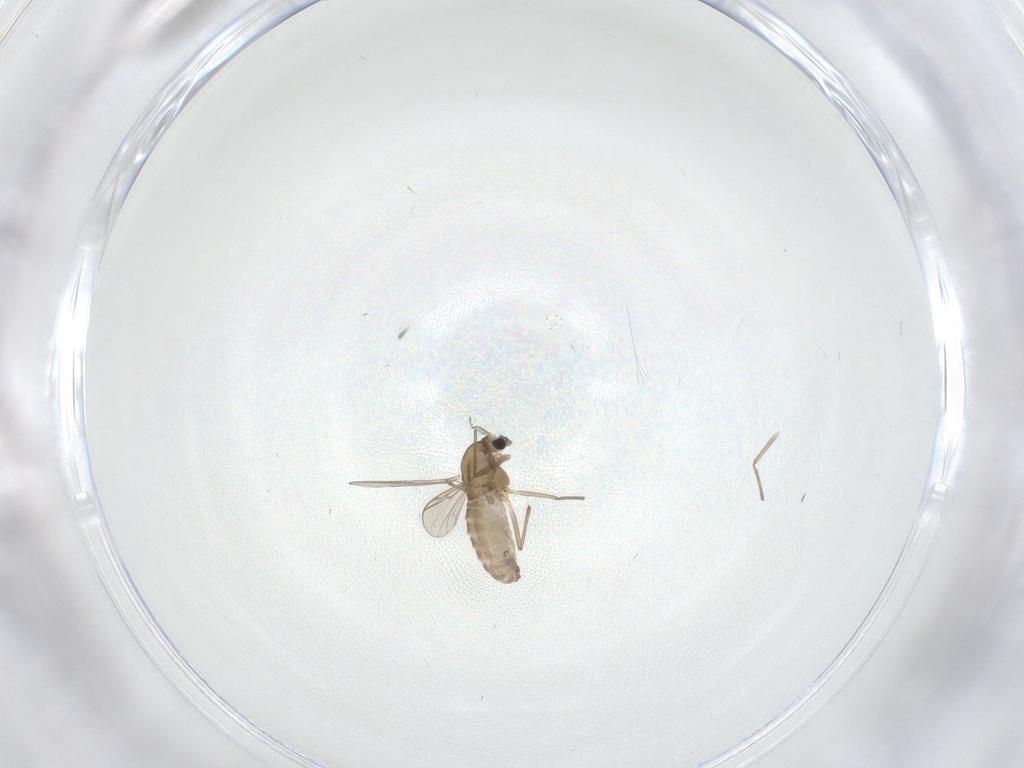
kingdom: Animalia
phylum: Arthropoda
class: Insecta
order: Diptera
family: Chironomidae
